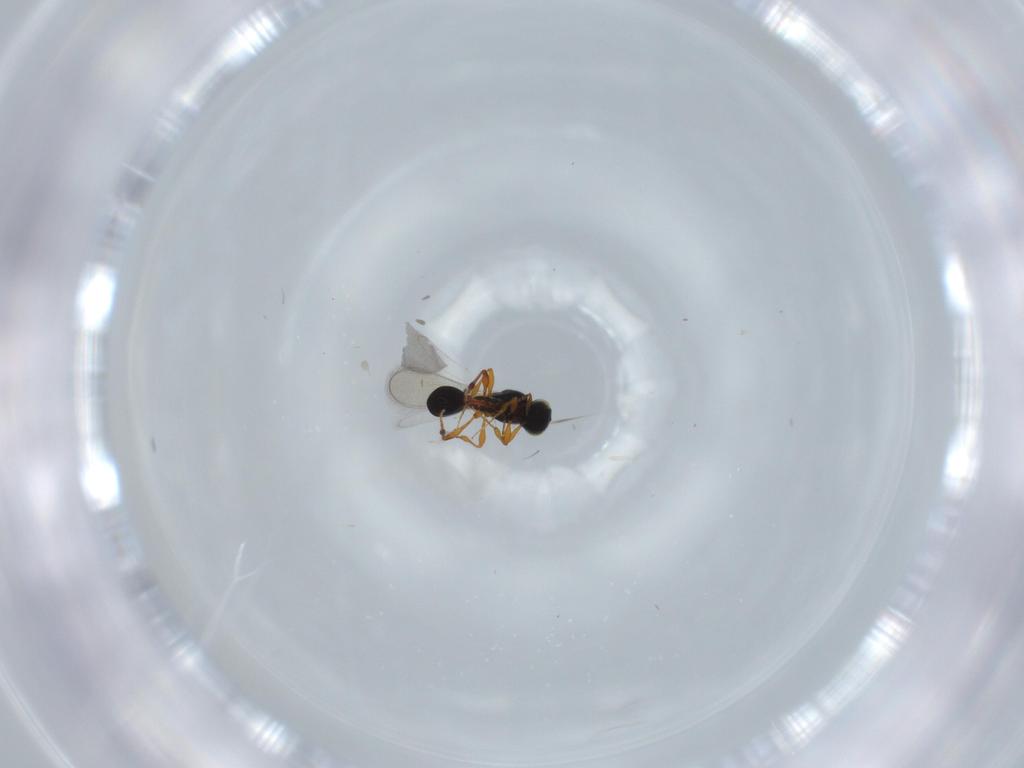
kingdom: Animalia
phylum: Arthropoda
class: Insecta
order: Hymenoptera
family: Platygastridae
